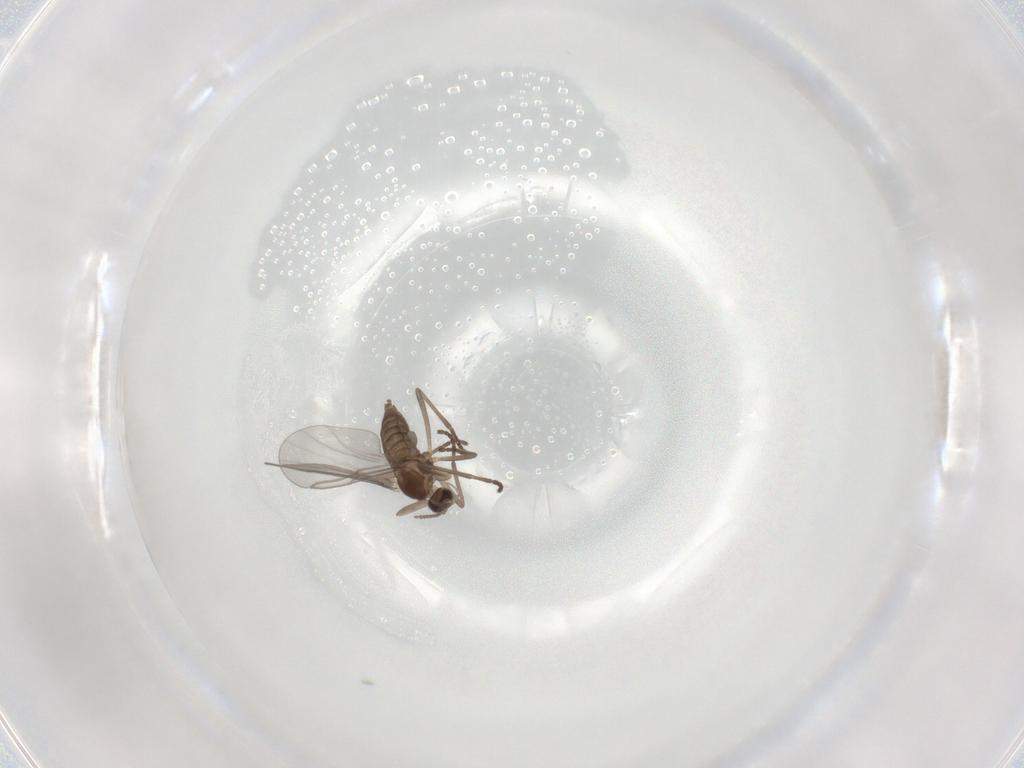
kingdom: Animalia
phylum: Arthropoda
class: Insecta
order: Diptera
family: Cecidomyiidae
